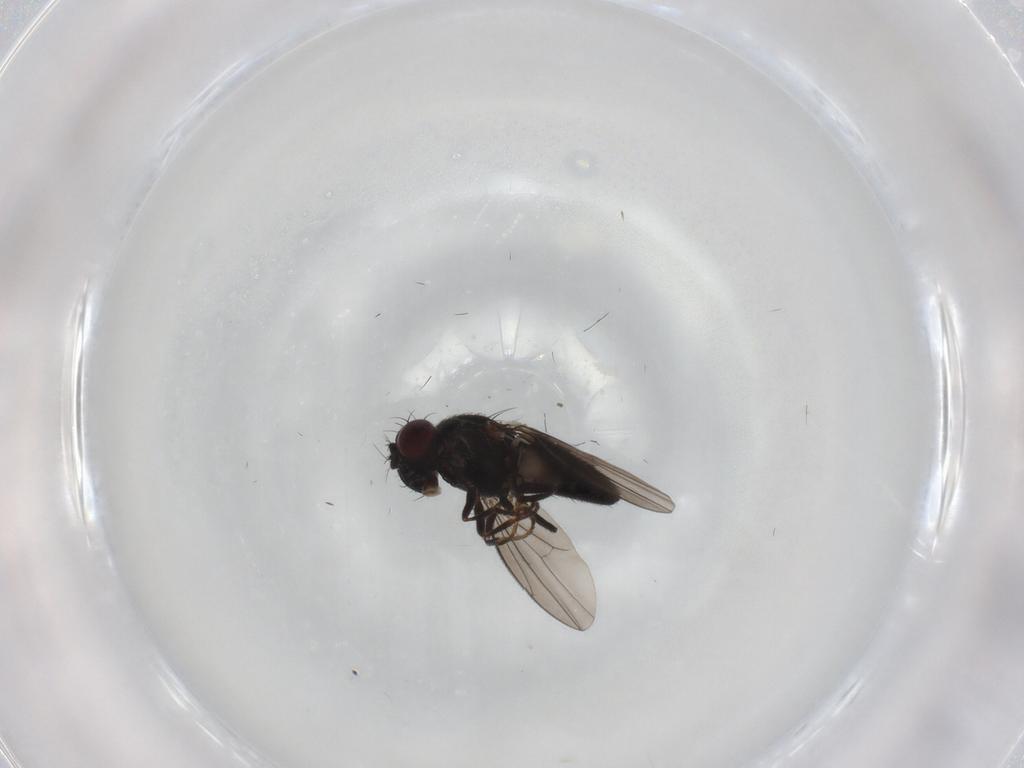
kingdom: Animalia
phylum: Arthropoda
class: Insecta
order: Diptera
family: Ephydridae
